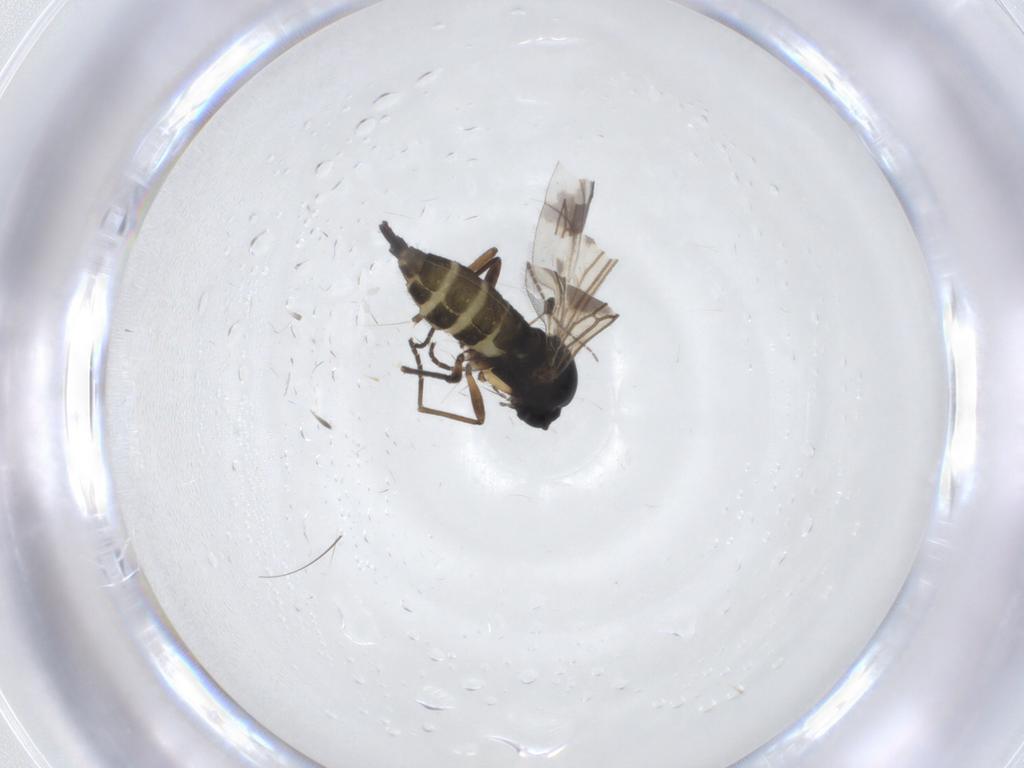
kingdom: Animalia
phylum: Arthropoda
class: Insecta
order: Diptera
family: Sciaridae
